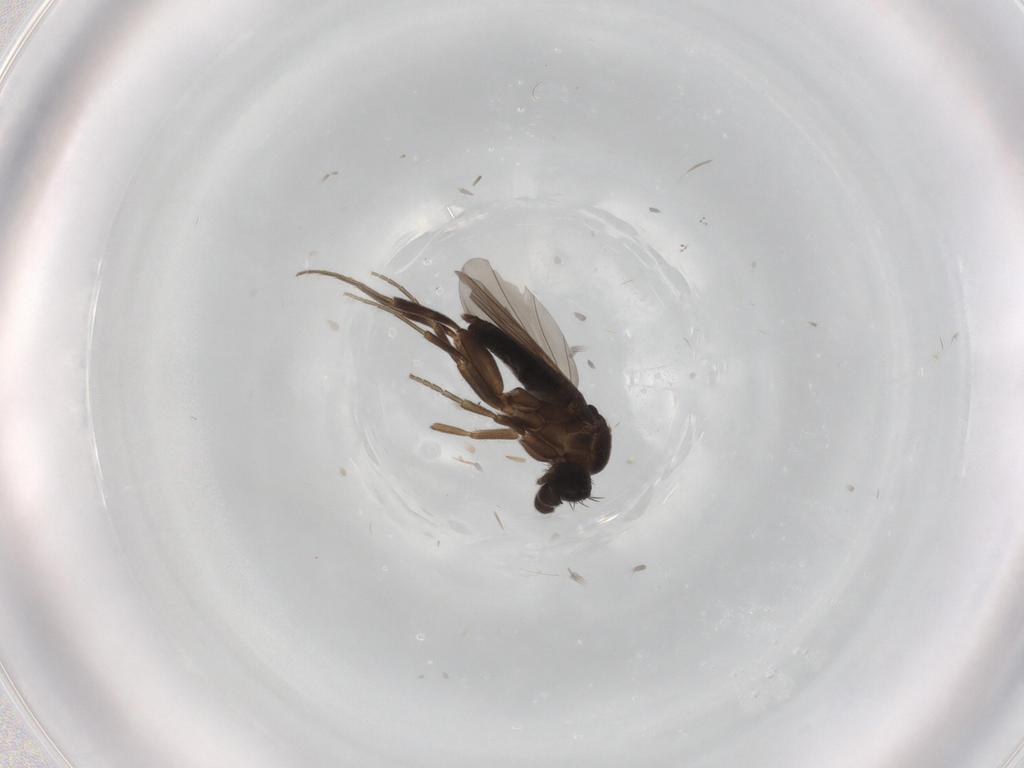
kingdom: Animalia
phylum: Arthropoda
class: Insecta
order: Diptera
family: Phoridae
